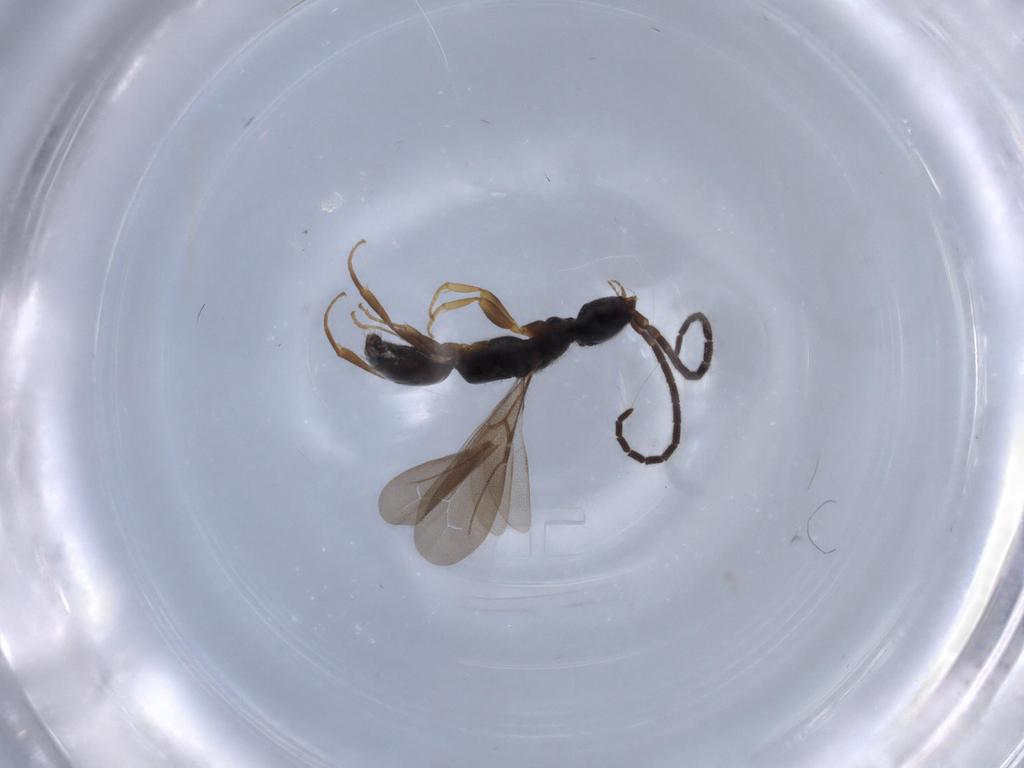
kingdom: Animalia
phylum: Arthropoda
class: Insecta
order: Hymenoptera
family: Bethylidae
